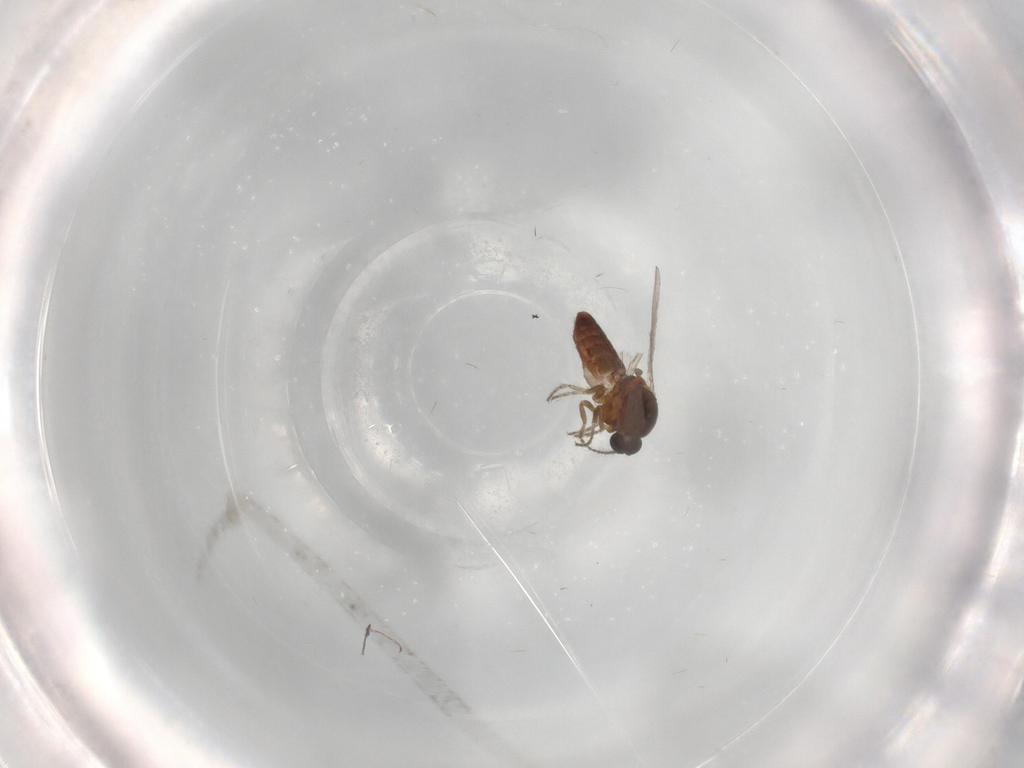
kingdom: Animalia
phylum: Arthropoda
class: Insecta
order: Diptera
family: Ceratopogonidae
